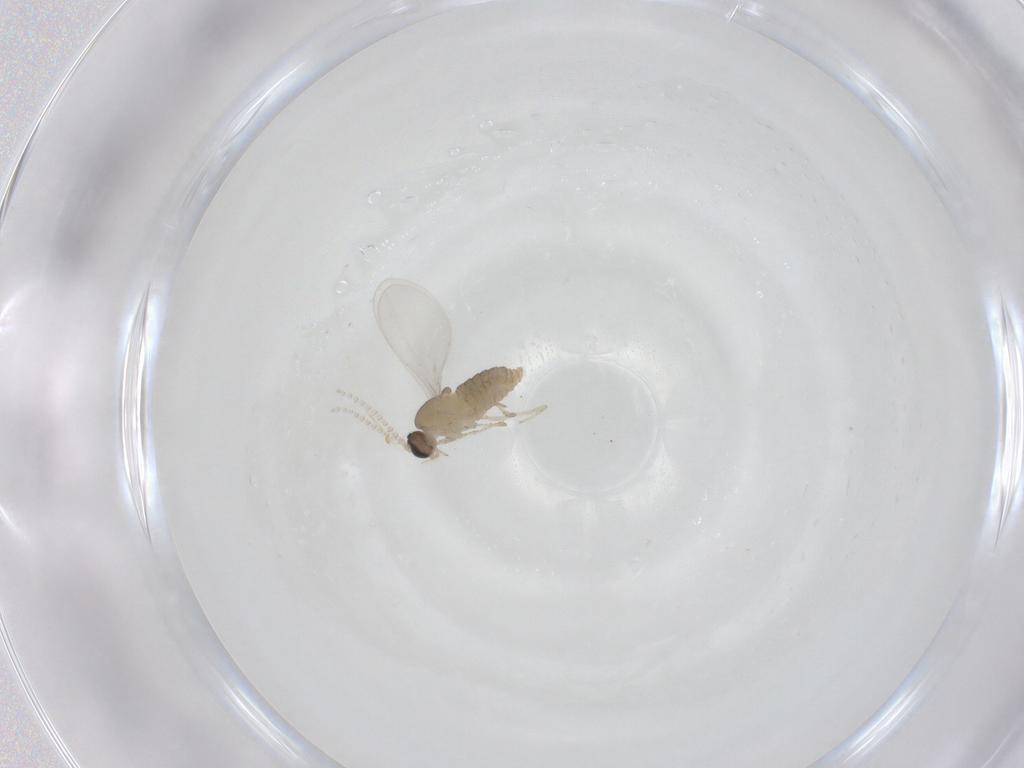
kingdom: Animalia
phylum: Arthropoda
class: Insecta
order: Diptera
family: Cecidomyiidae
